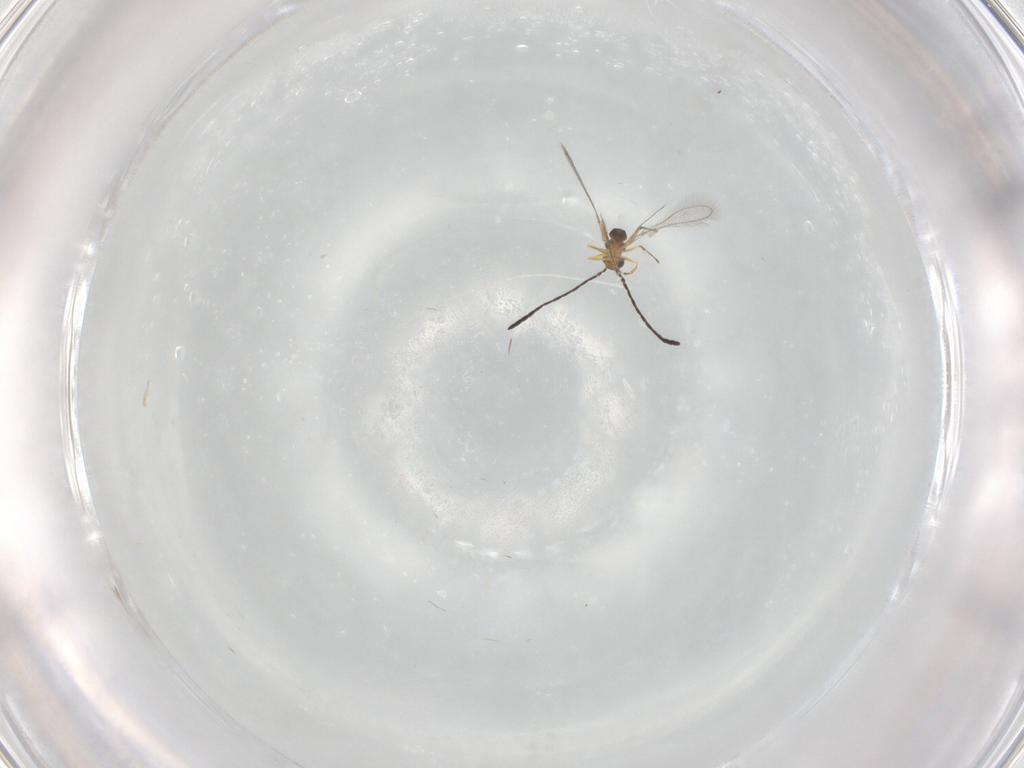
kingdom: Animalia
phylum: Arthropoda
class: Insecta
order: Hymenoptera
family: Mymaridae
